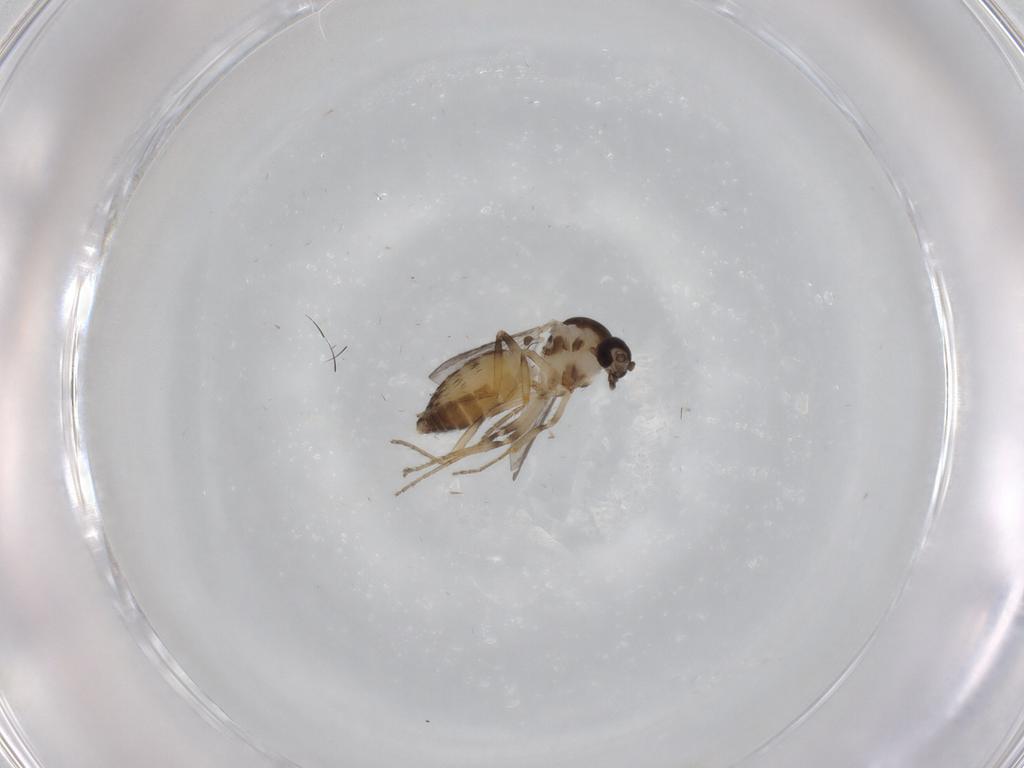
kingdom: Animalia
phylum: Arthropoda
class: Insecta
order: Diptera
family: Ceratopogonidae
